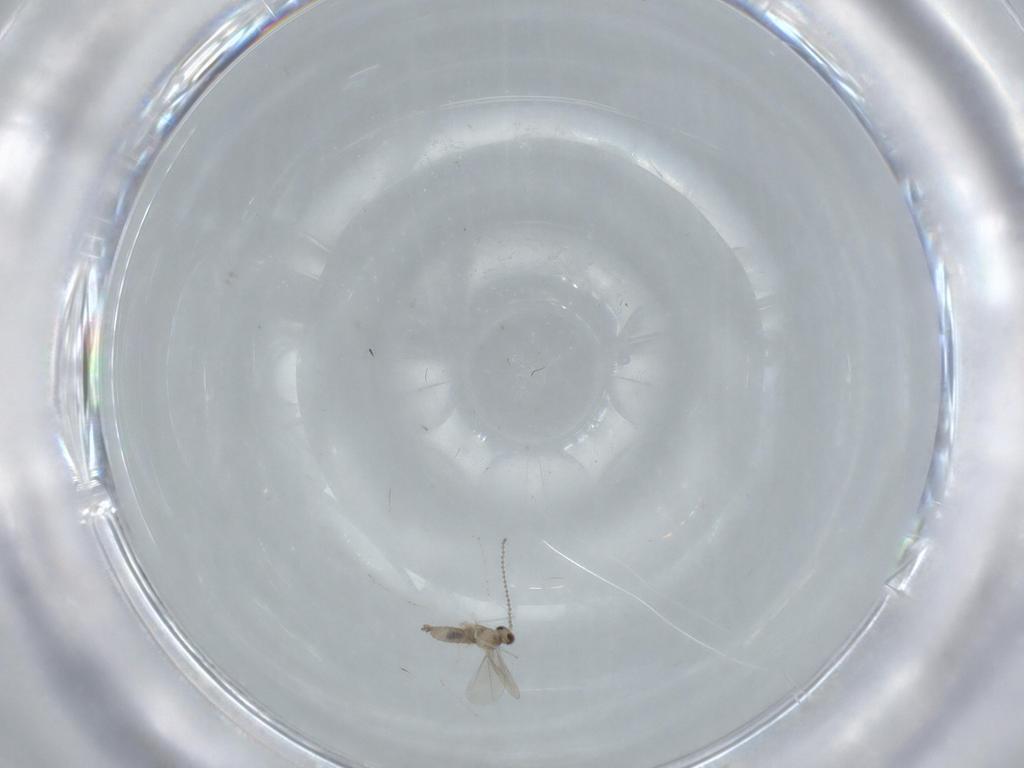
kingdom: Animalia
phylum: Arthropoda
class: Insecta
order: Diptera
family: Cecidomyiidae
